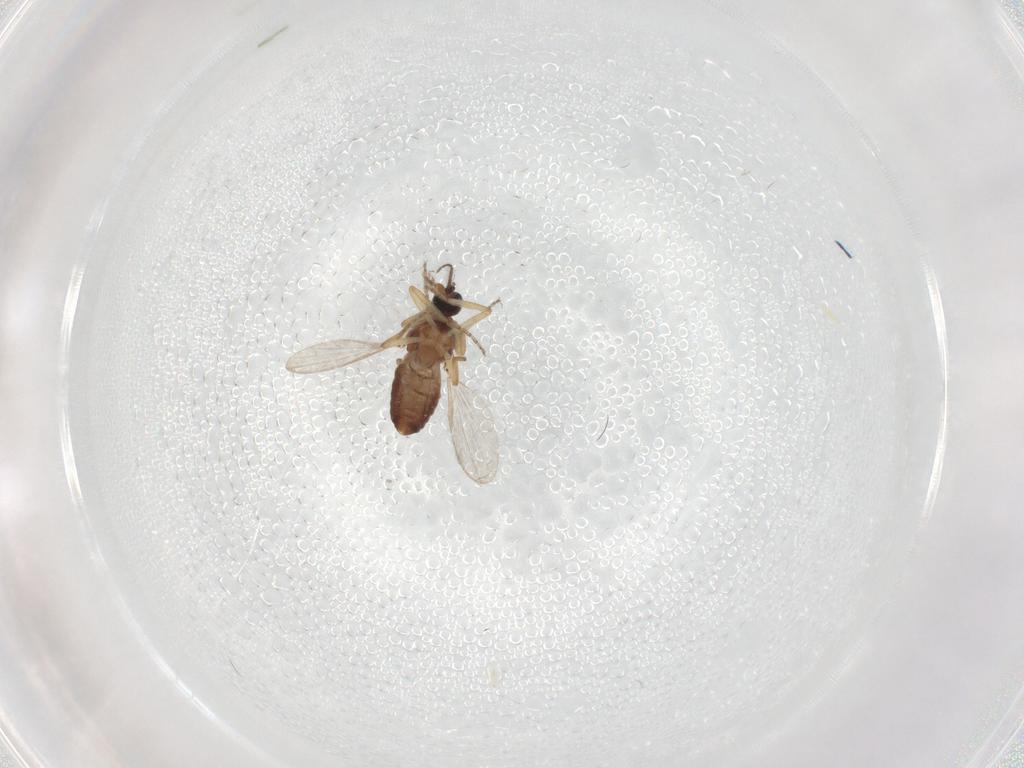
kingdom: Animalia
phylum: Arthropoda
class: Insecta
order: Diptera
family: Ceratopogonidae
